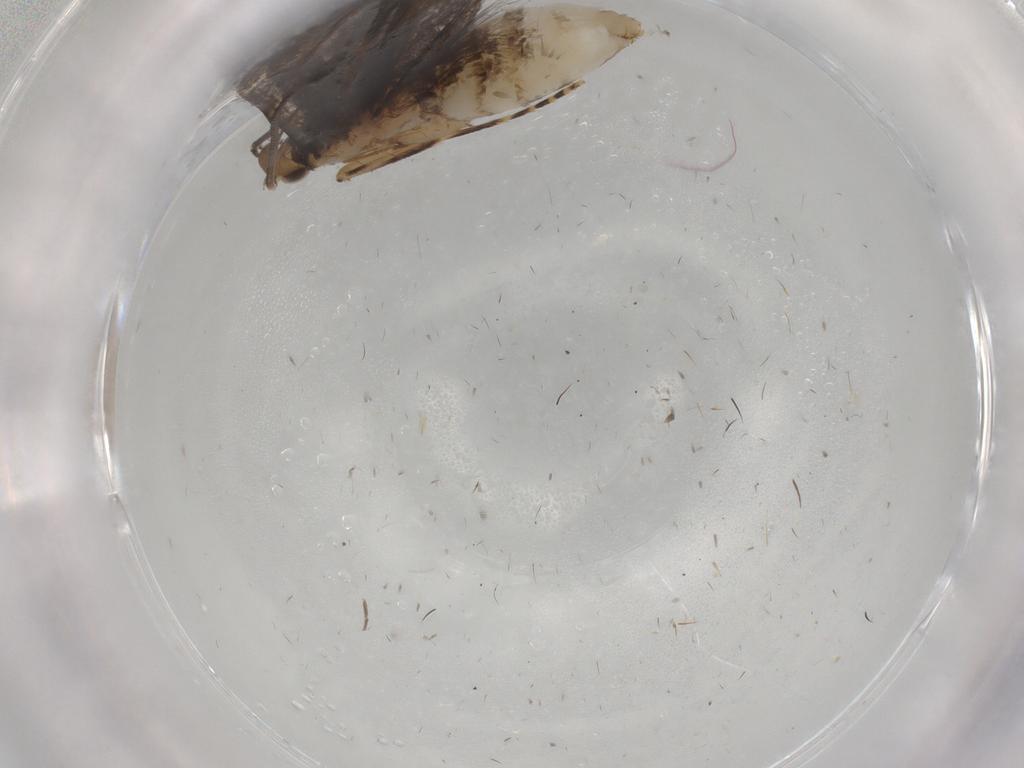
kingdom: Animalia
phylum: Arthropoda
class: Insecta
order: Lepidoptera
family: Dryadaulidae
